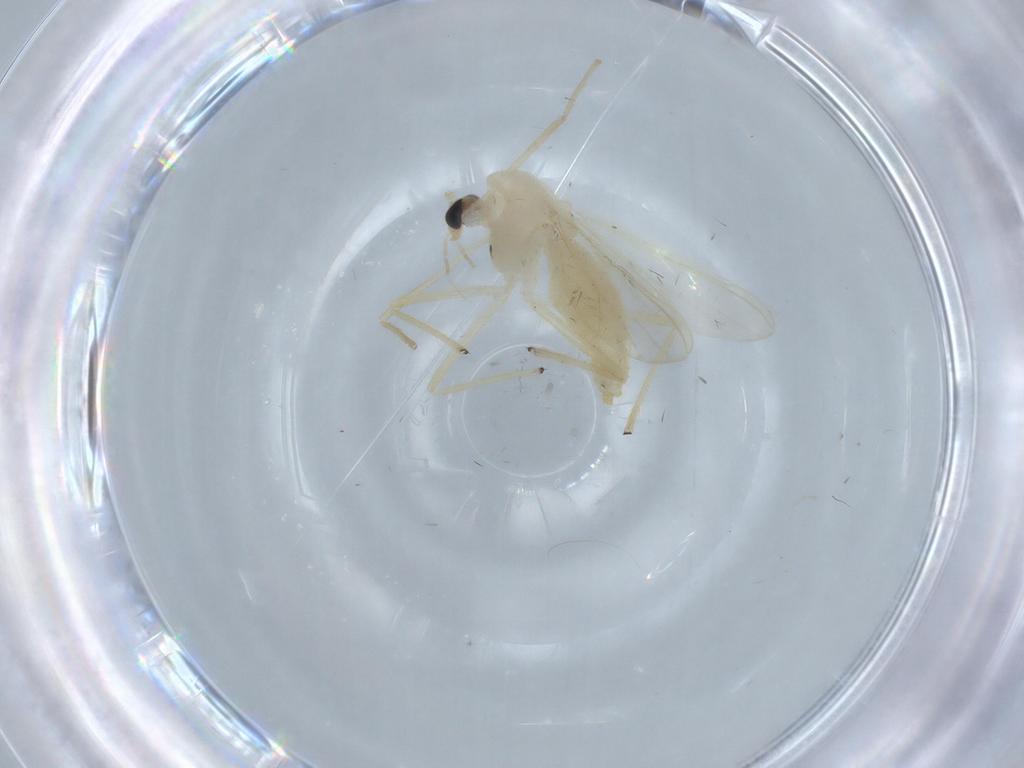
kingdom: Animalia
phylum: Arthropoda
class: Insecta
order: Diptera
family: Chironomidae
